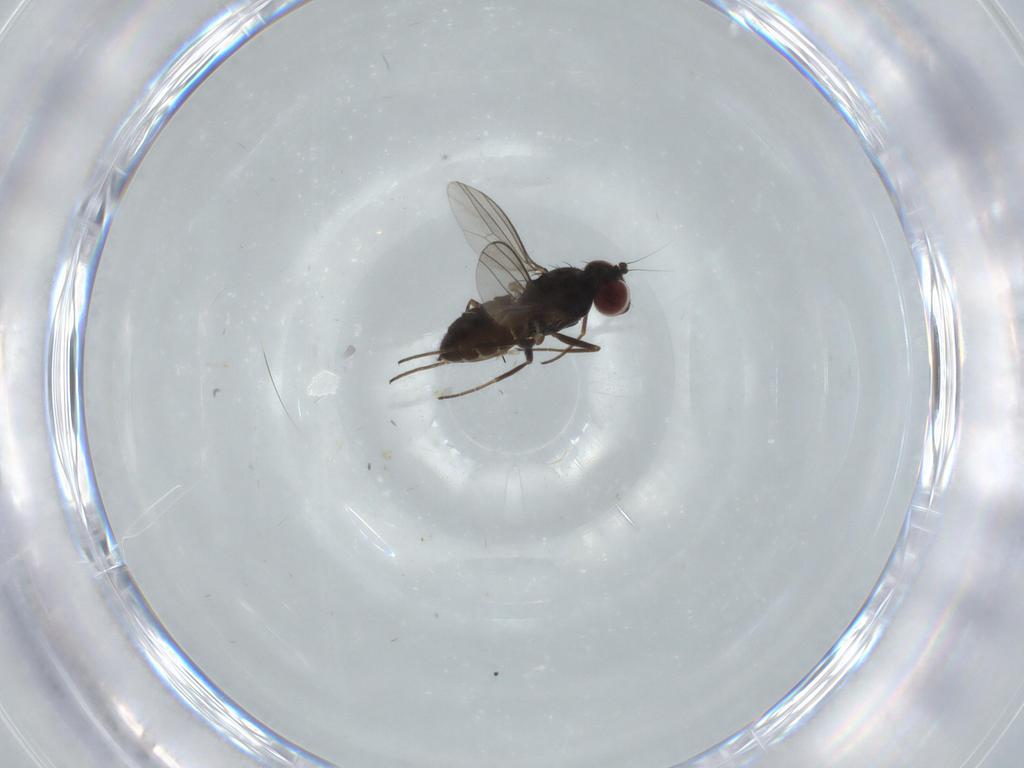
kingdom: Animalia
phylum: Arthropoda
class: Insecta
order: Diptera
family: Dolichopodidae
